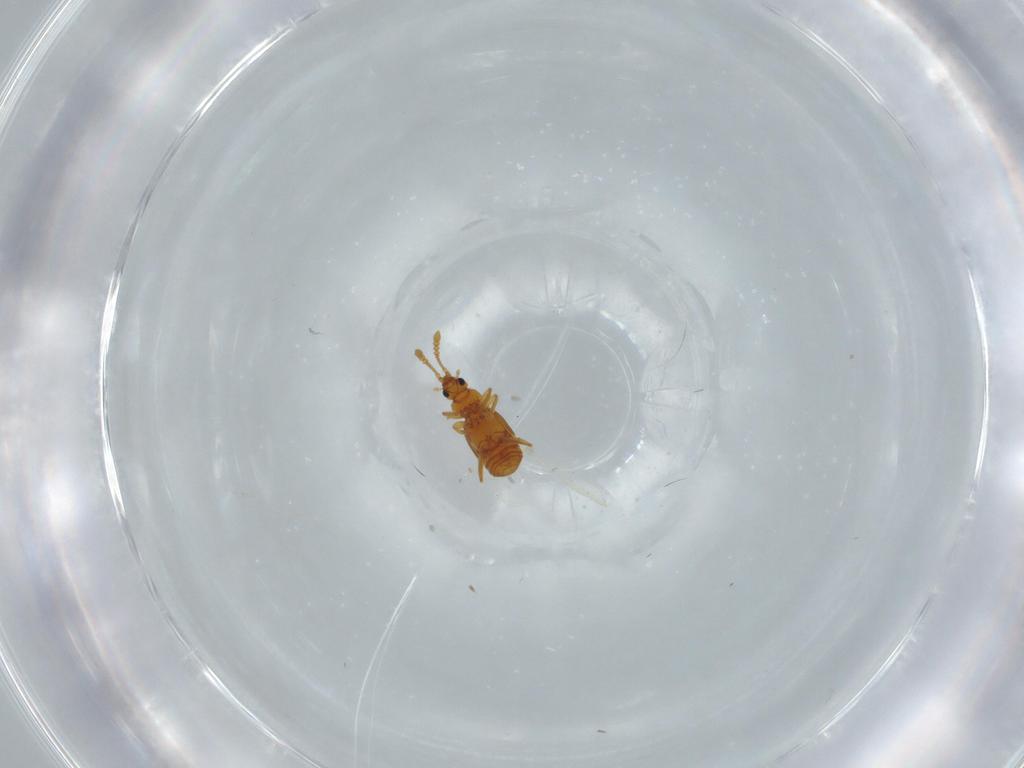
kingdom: Animalia
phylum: Arthropoda
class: Insecta
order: Coleoptera
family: Staphylinidae
